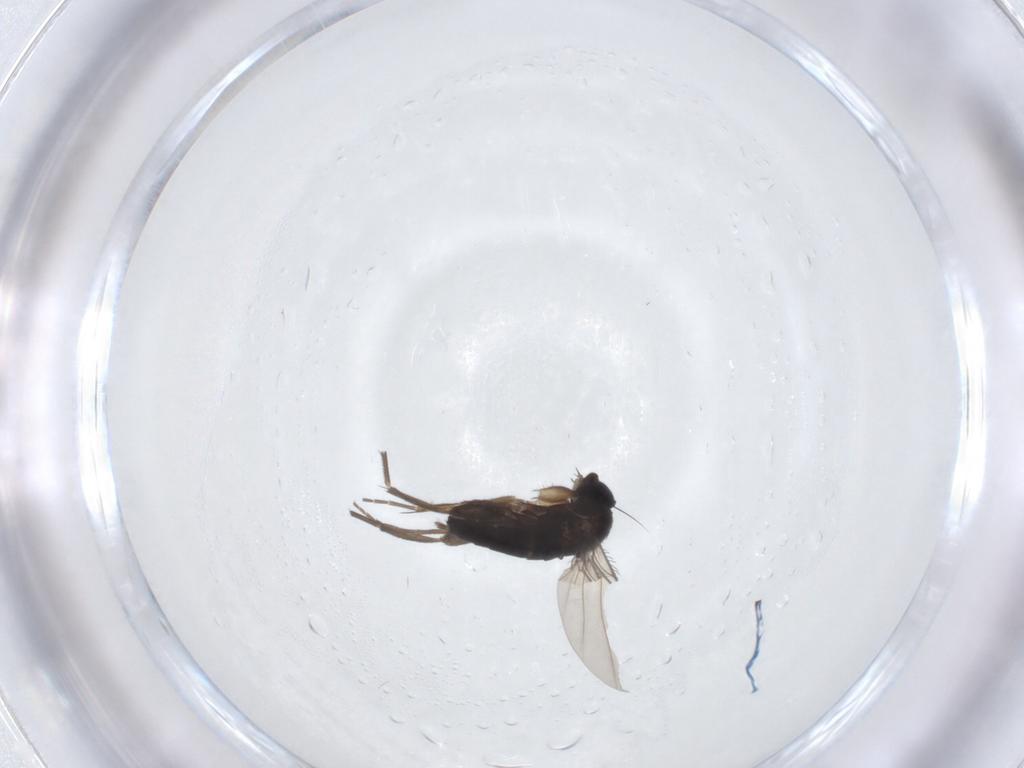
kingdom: Animalia
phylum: Arthropoda
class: Insecta
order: Diptera
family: Phoridae
